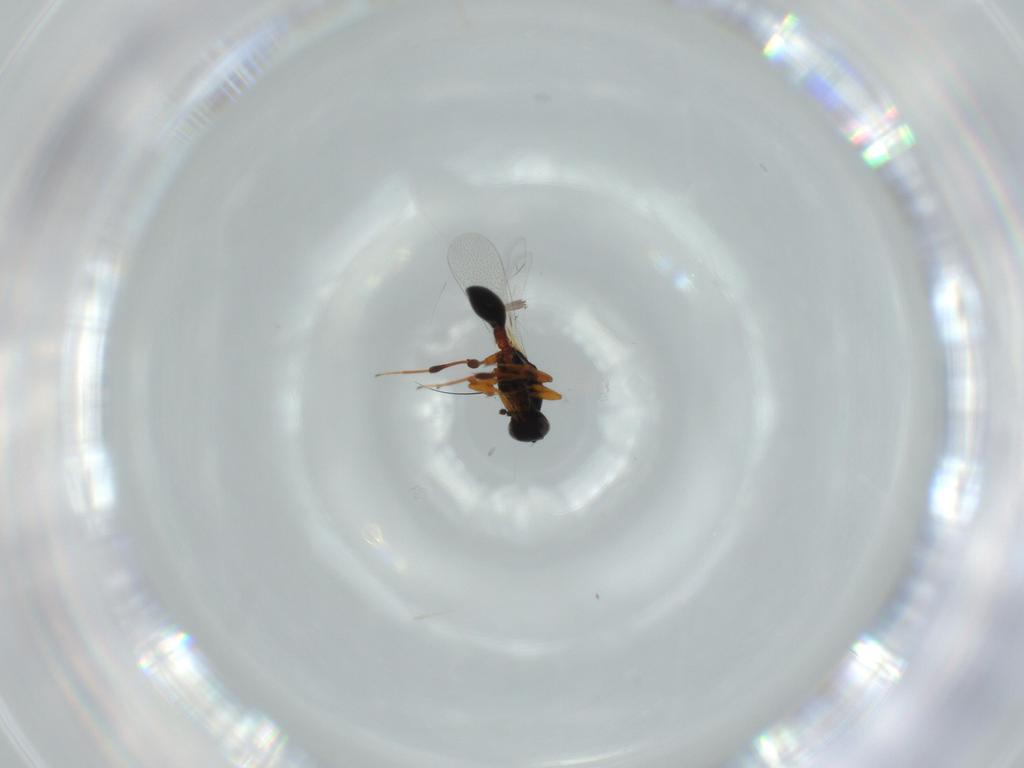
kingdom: Animalia
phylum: Arthropoda
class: Insecta
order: Hymenoptera
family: Platygastridae
